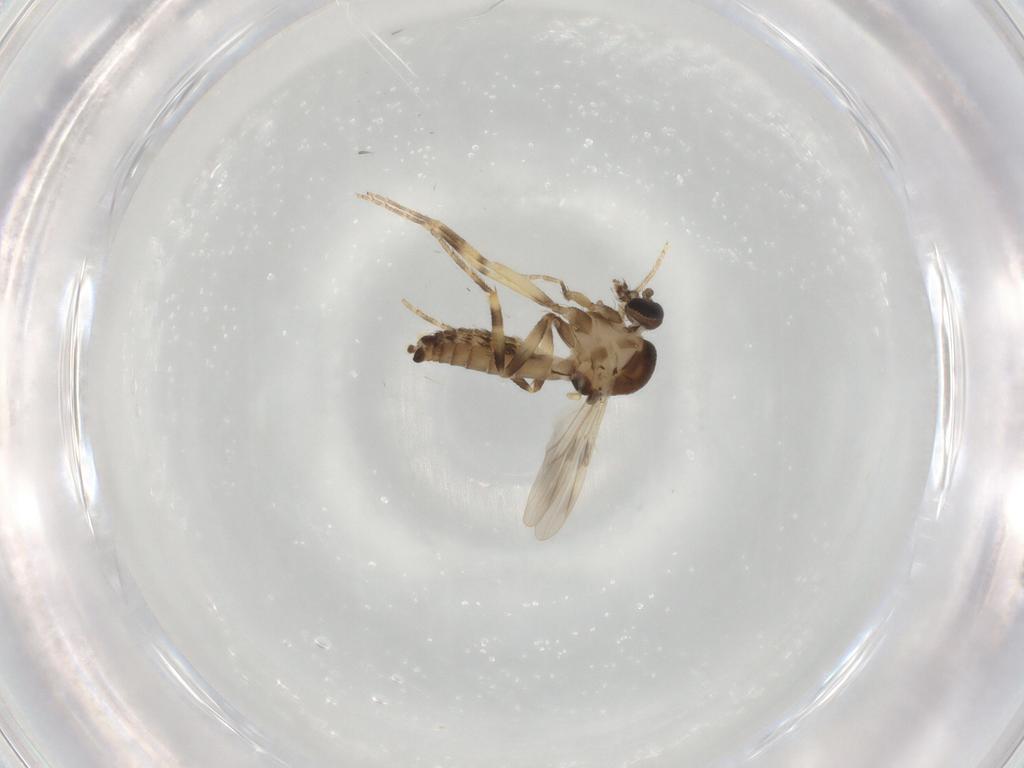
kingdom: Animalia
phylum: Arthropoda
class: Insecta
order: Diptera
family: Ceratopogonidae
